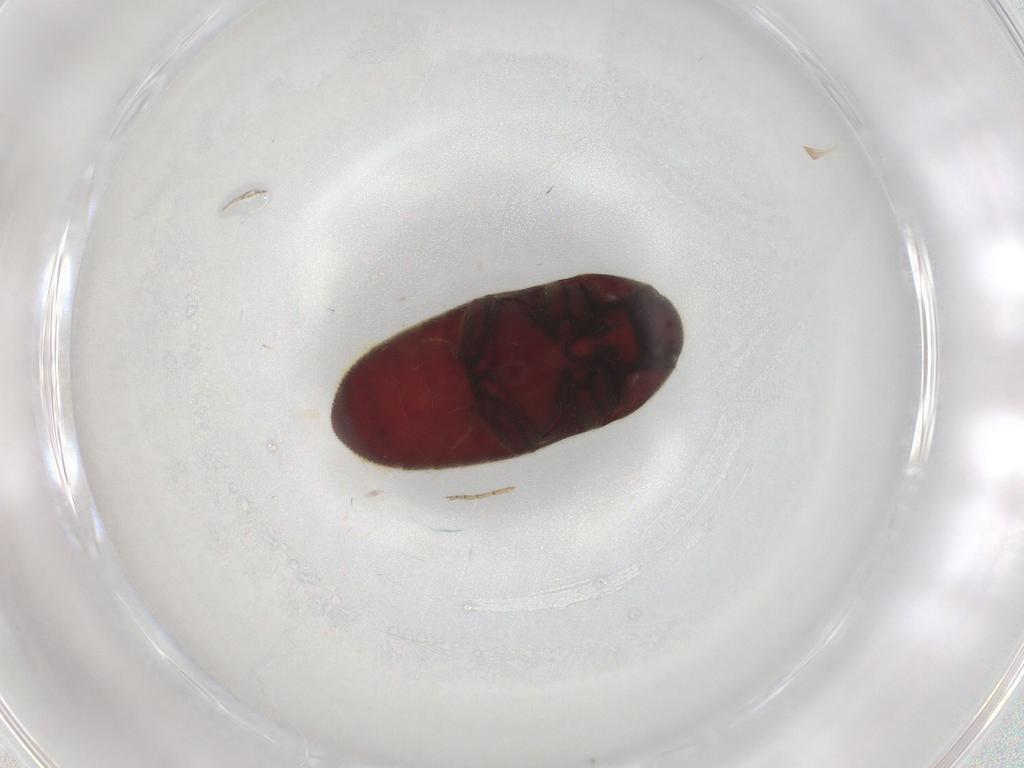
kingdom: Animalia
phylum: Arthropoda
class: Insecta
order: Coleoptera
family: Throscidae
